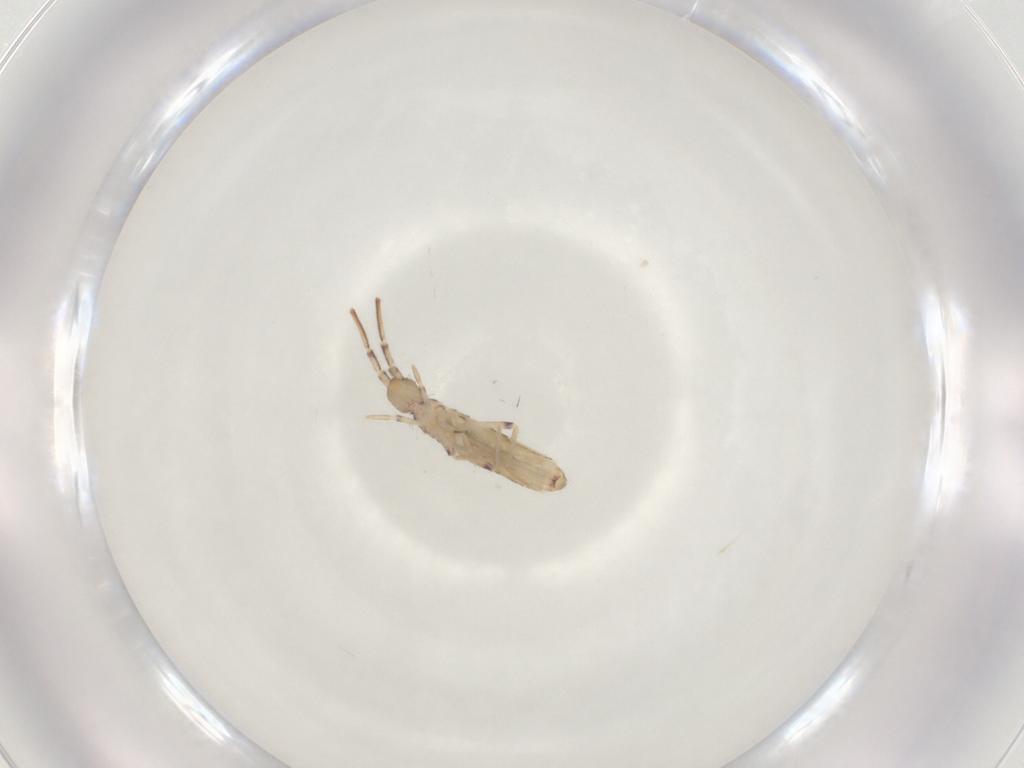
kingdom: Animalia
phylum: Arthropoda
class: Collembola
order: Entomobryomorpha
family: Entomobryidae
